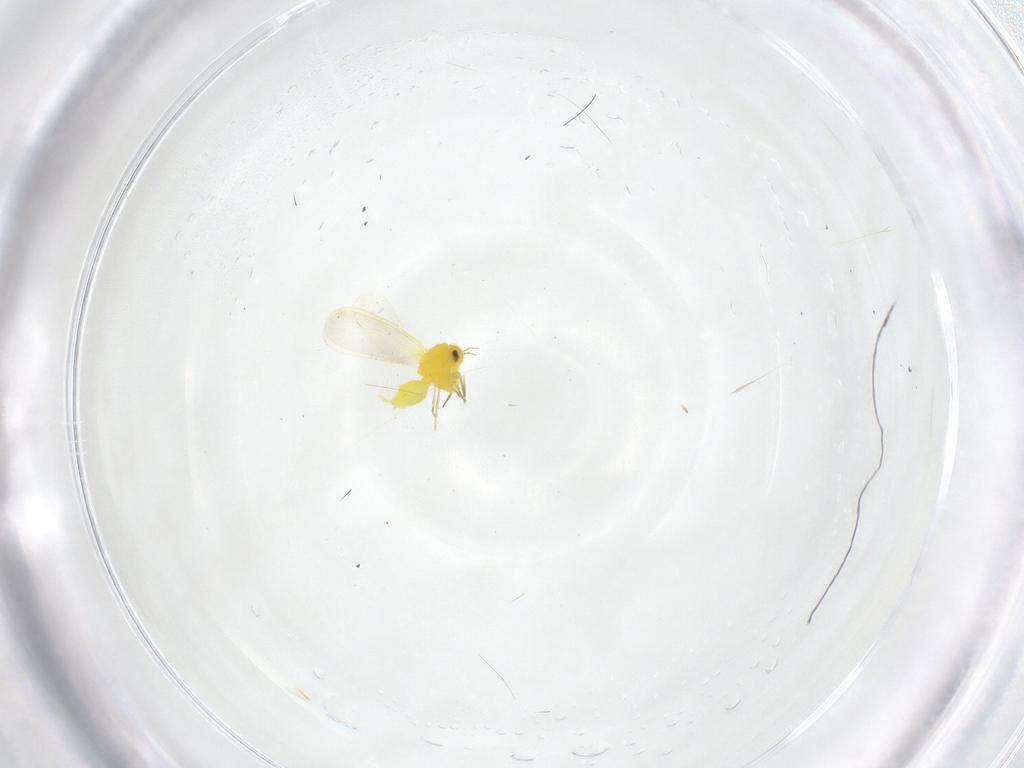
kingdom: Animalia
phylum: Arthropoda
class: Insecta
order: Hemiptera
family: Aleyrodidae
